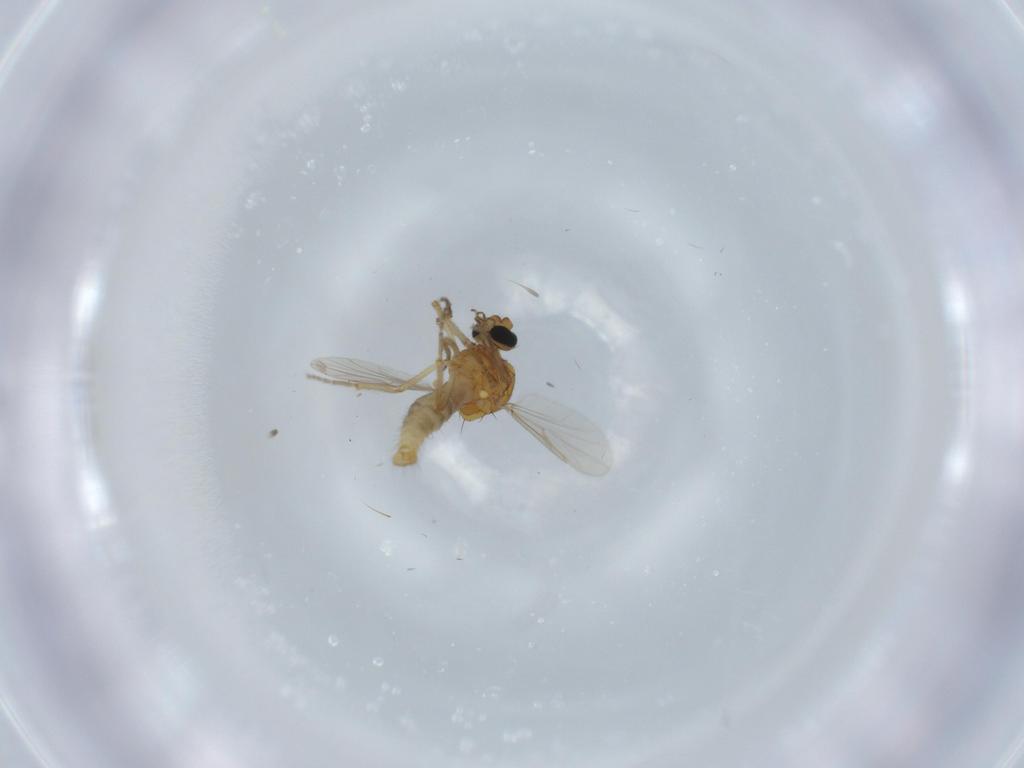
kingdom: Animalia
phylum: Arthropoda
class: Insecta
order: Diptera
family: Ceratopogonidae
